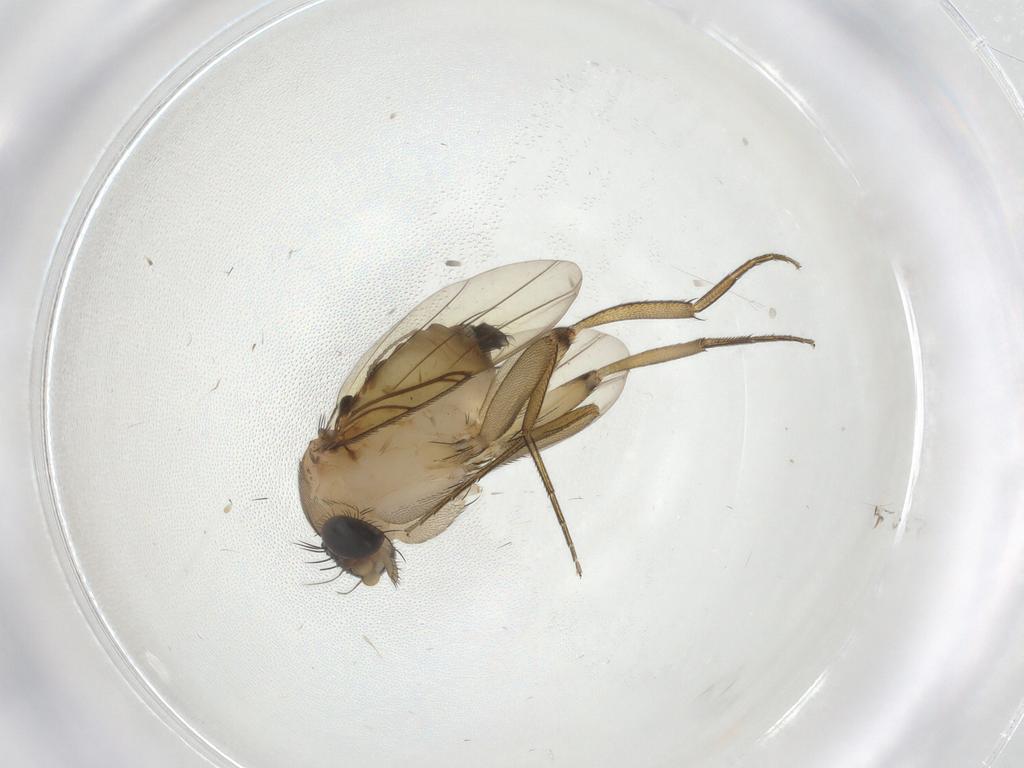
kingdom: Animalia
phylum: Arthropoda
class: Insecta
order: Diptera
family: Phoridae
